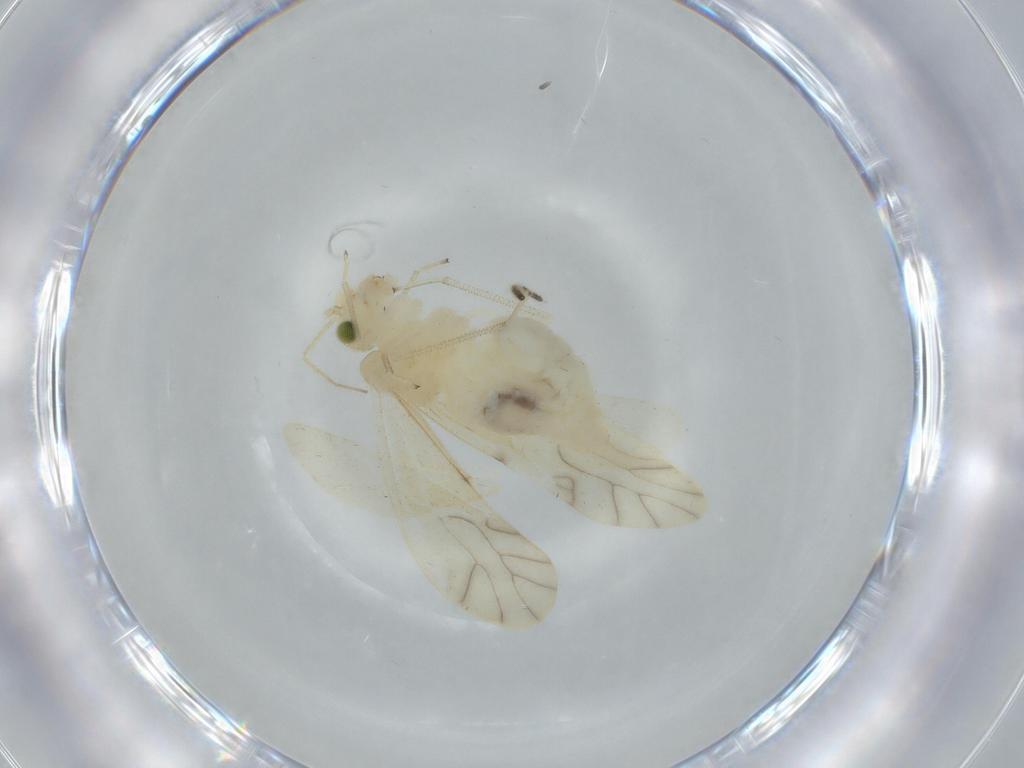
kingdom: Animalia
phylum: Arthropoda
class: Insecta
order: Psocodea
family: Caeciliusidae
